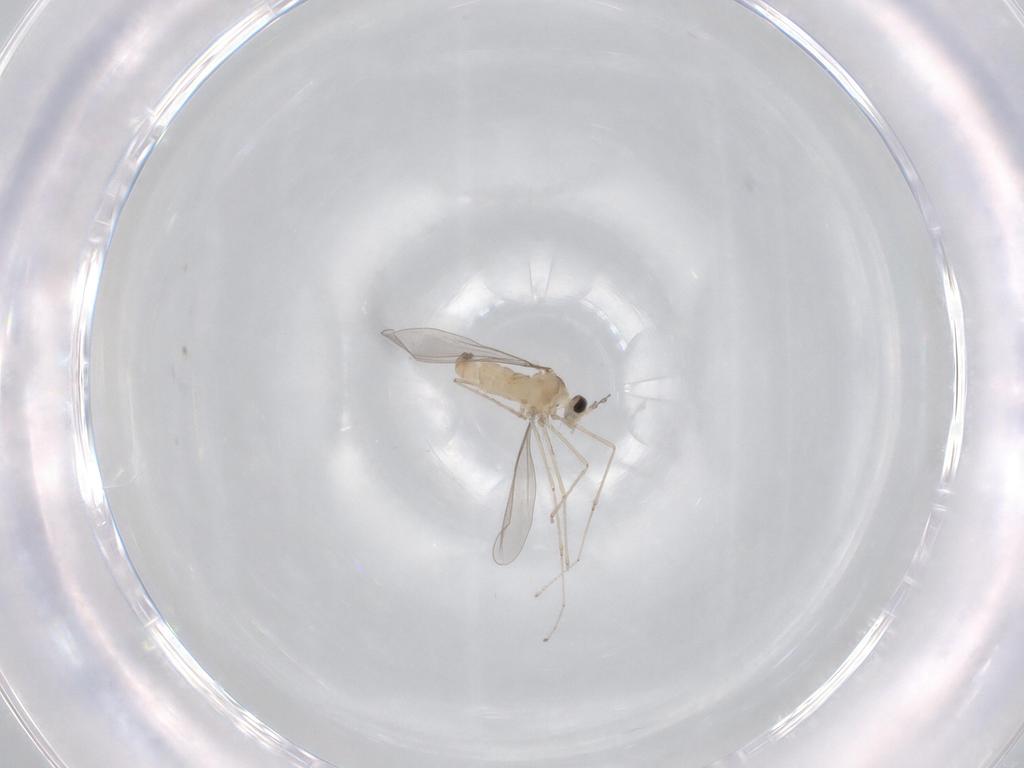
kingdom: Animalia
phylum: Arthropoda
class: Insecta
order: Diptera
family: Cecidomyiidae
